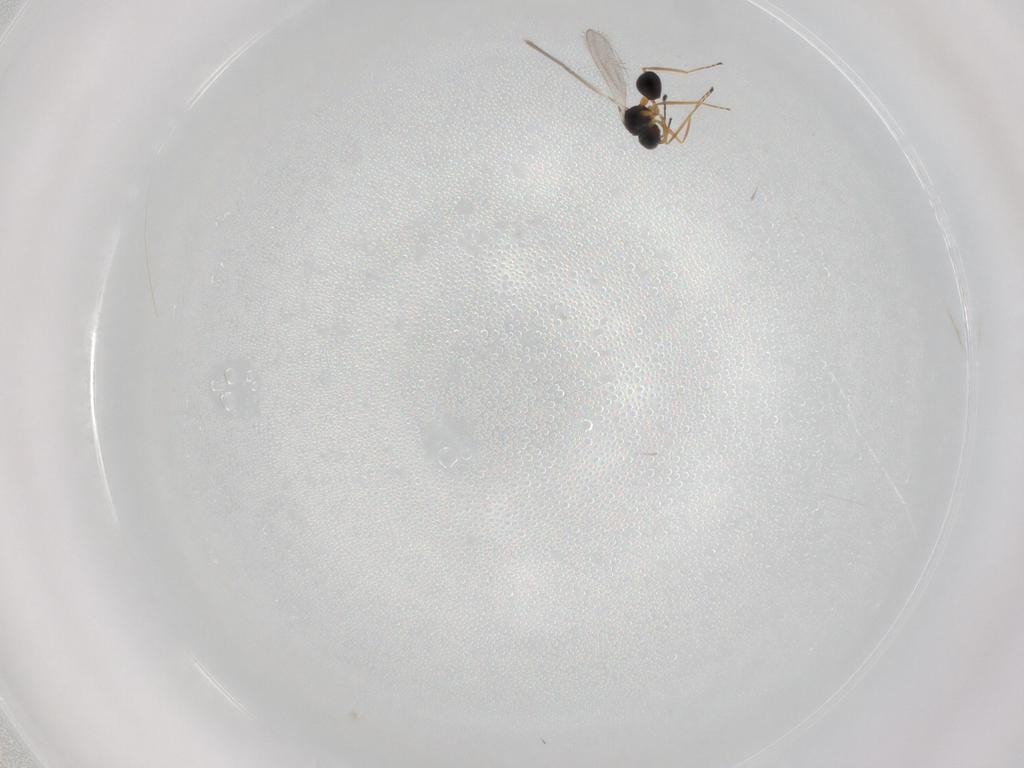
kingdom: Animalia
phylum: Arthropoda
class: Insecta
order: Hymenoptera
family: Mymaridae
